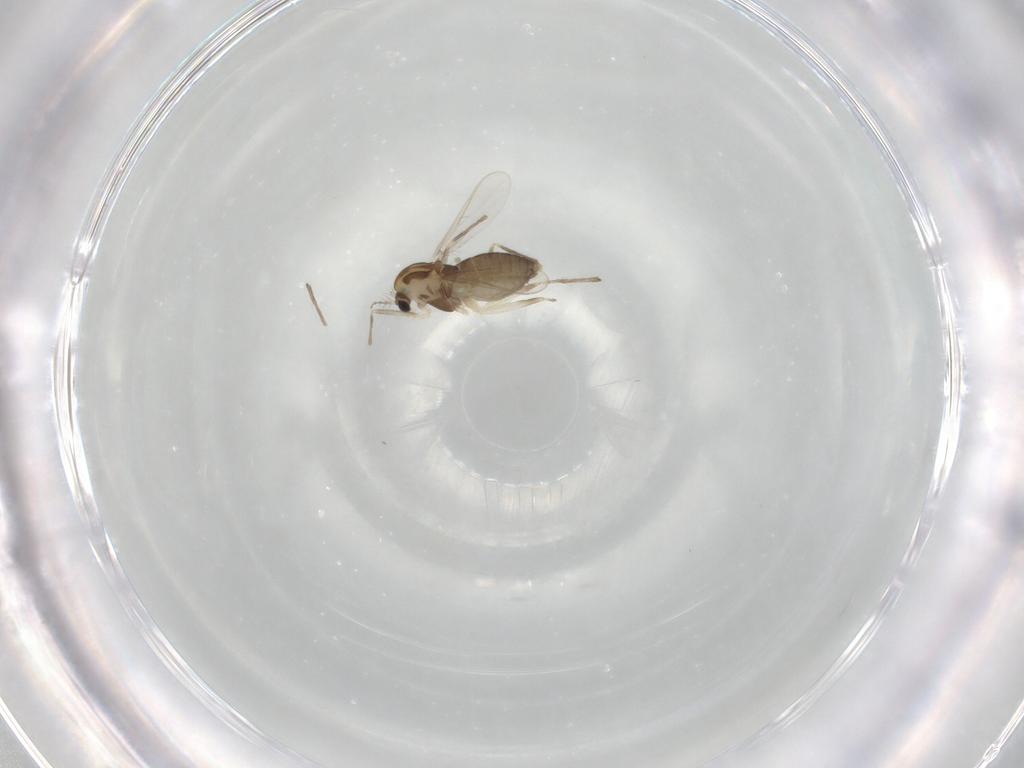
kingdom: Animalia
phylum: Arthropoda
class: Insecta
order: Diptera
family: Chironomidae
